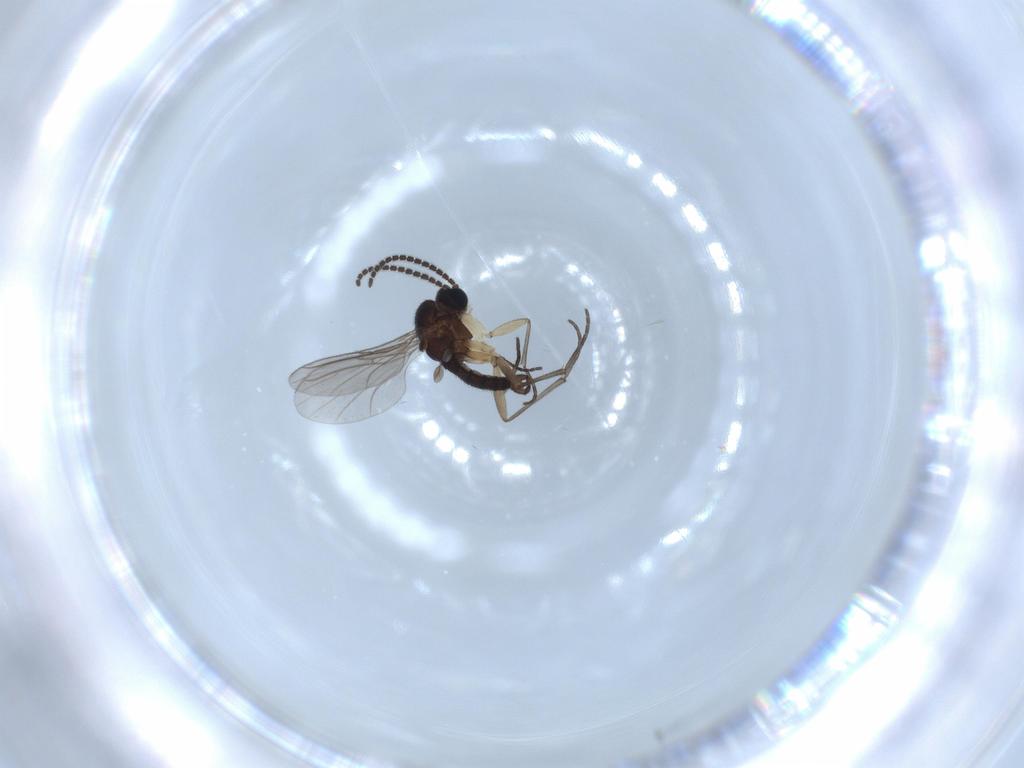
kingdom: Animalia
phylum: Arthropoda
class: Insecta
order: Diptera
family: Sciaridae
